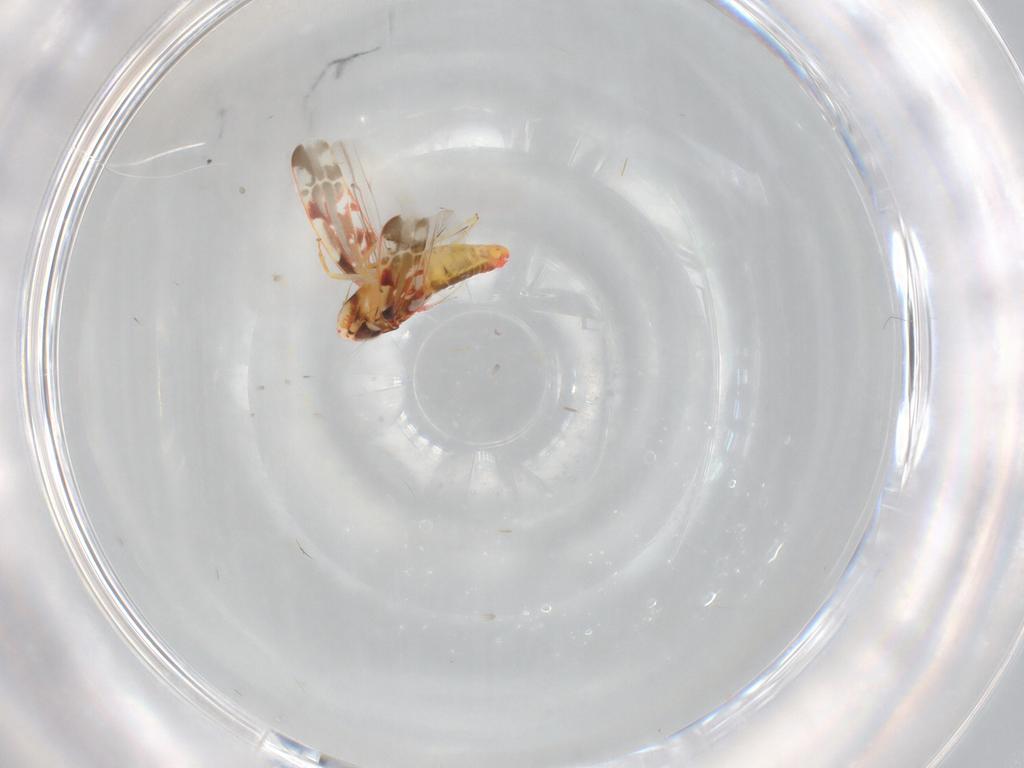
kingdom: Animalia
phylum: Arthropoda
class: Insecta
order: Hemiptera
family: Cicadellidae
